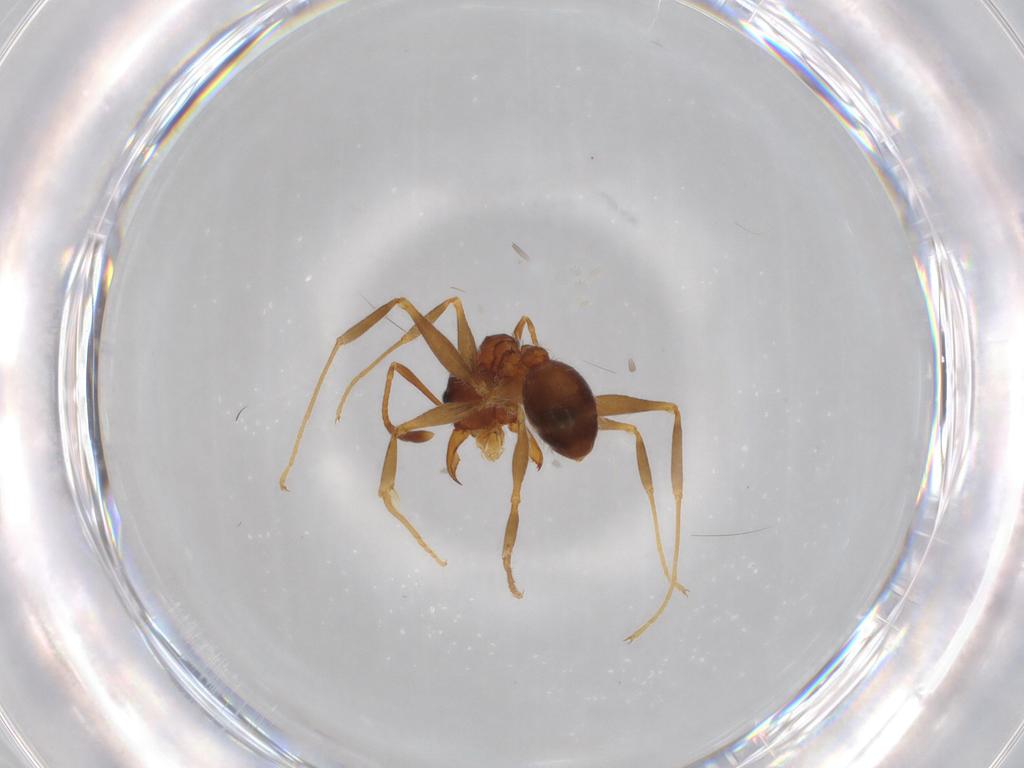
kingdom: Animalia
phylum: Arthropoda
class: Insecta
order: Hymenoptera
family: Formicidae
